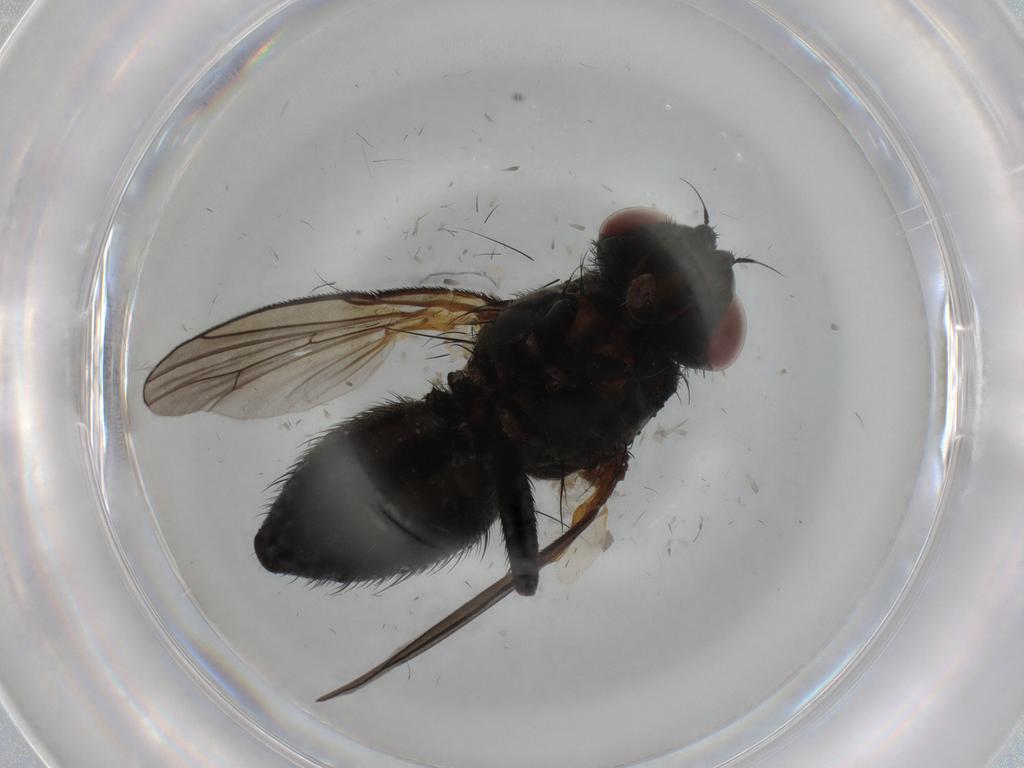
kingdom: Animalia
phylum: Arthropoda
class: Insecta
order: Diptera
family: Anthomyiidae
